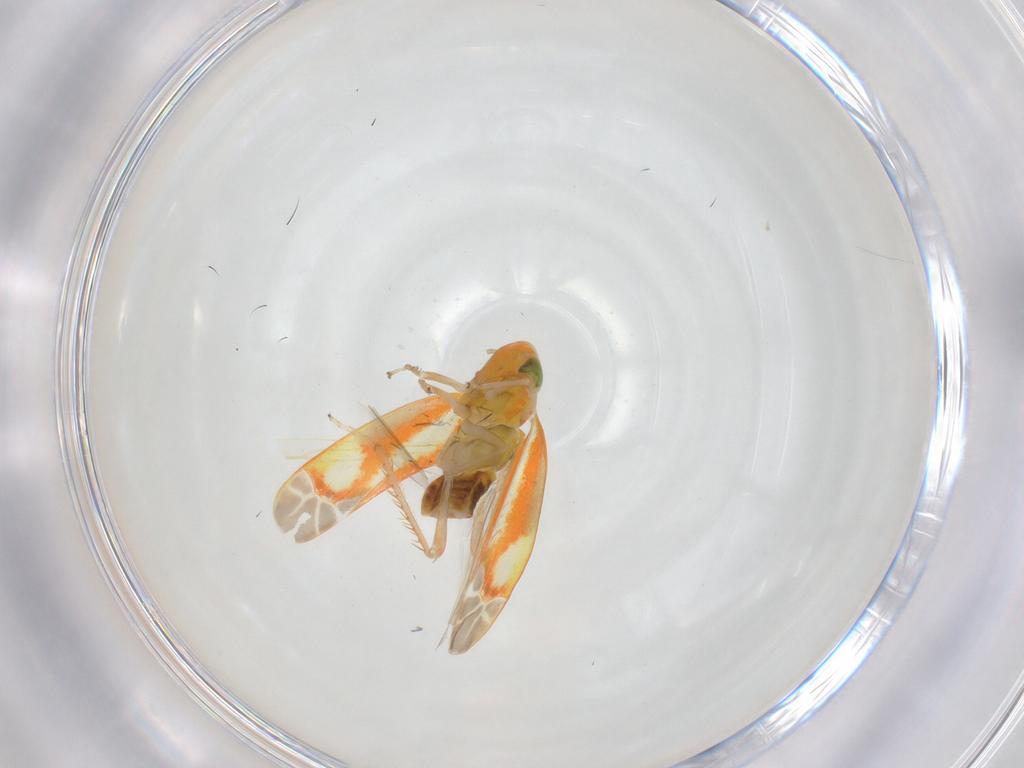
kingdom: Animalia
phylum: Arthropoda
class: Insecta
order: Hemiptera
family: Cicadellidae
